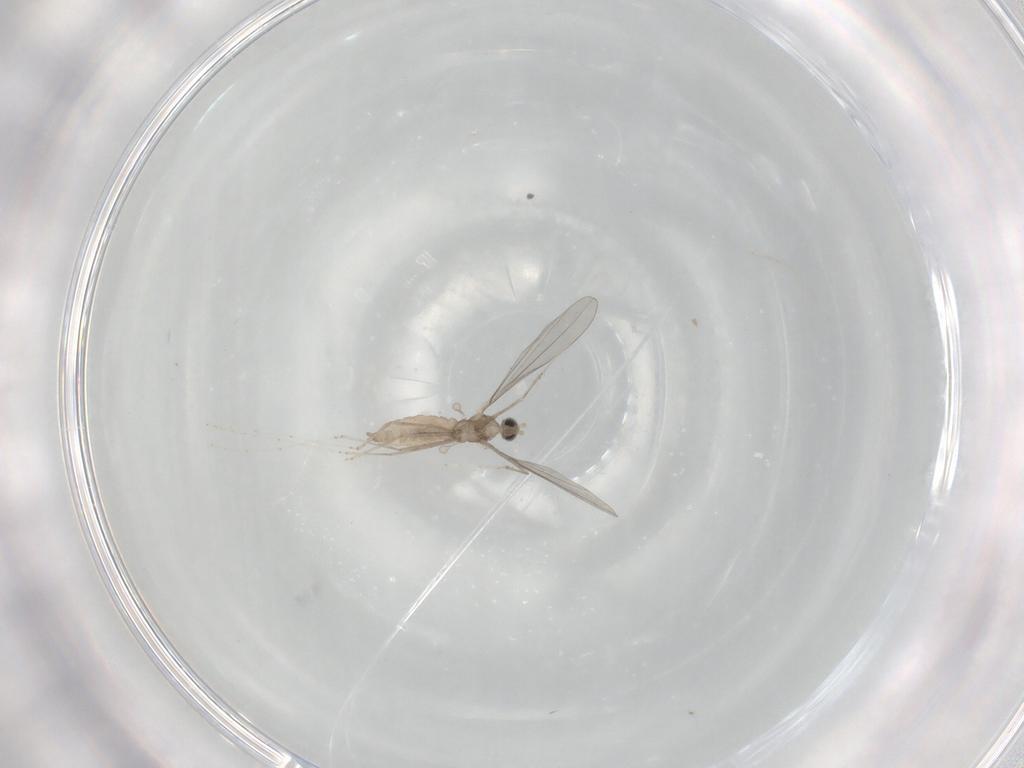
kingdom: Animalia
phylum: Arthropoda
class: Insecta
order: Diptera
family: Cecidomyiidae
